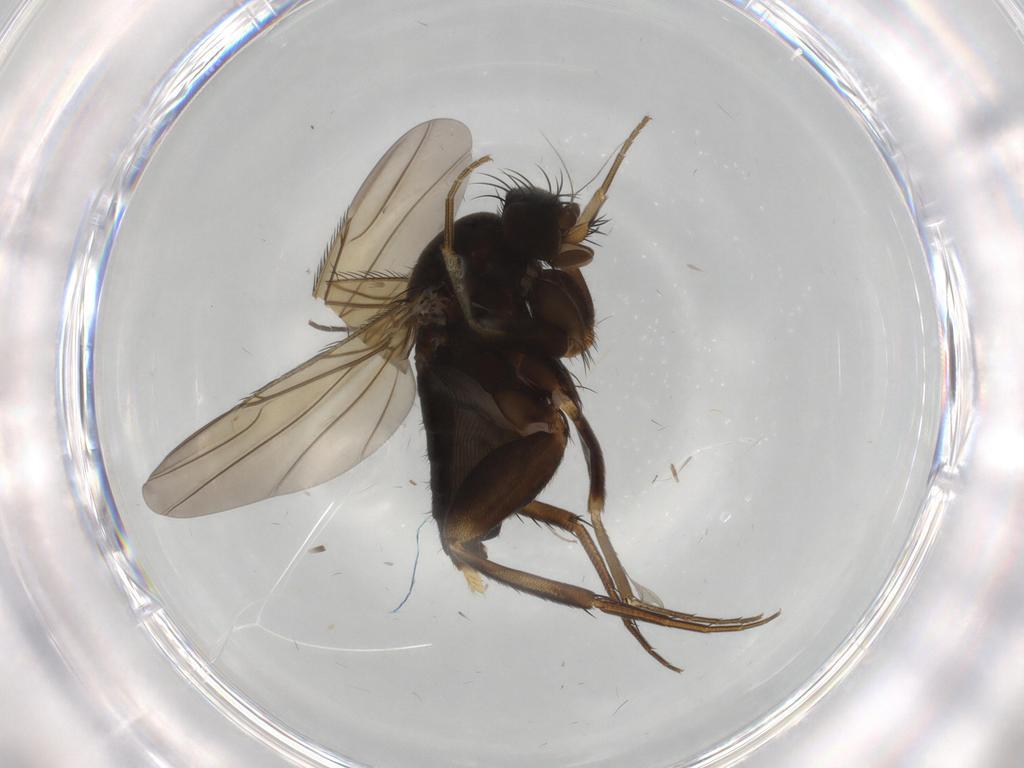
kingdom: Animalia
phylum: Arthropoda
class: Insecta
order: Diptera
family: Phoridae
